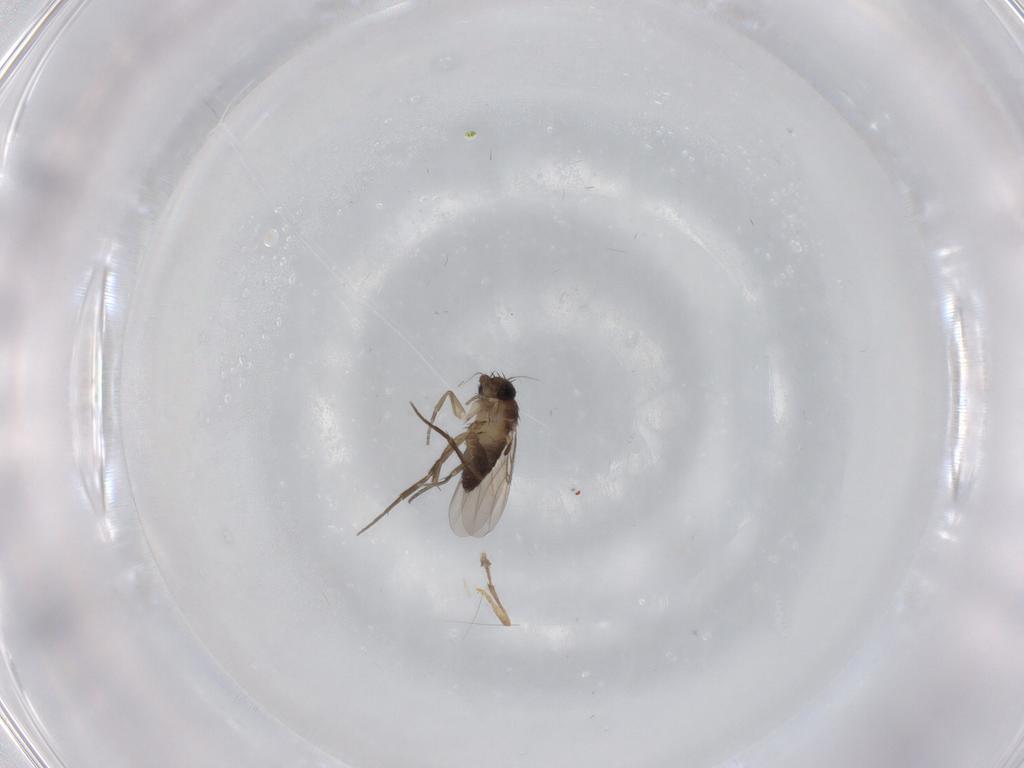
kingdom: Animalia
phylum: Arthropoda
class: Insecta
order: Diptera
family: Phoridae
